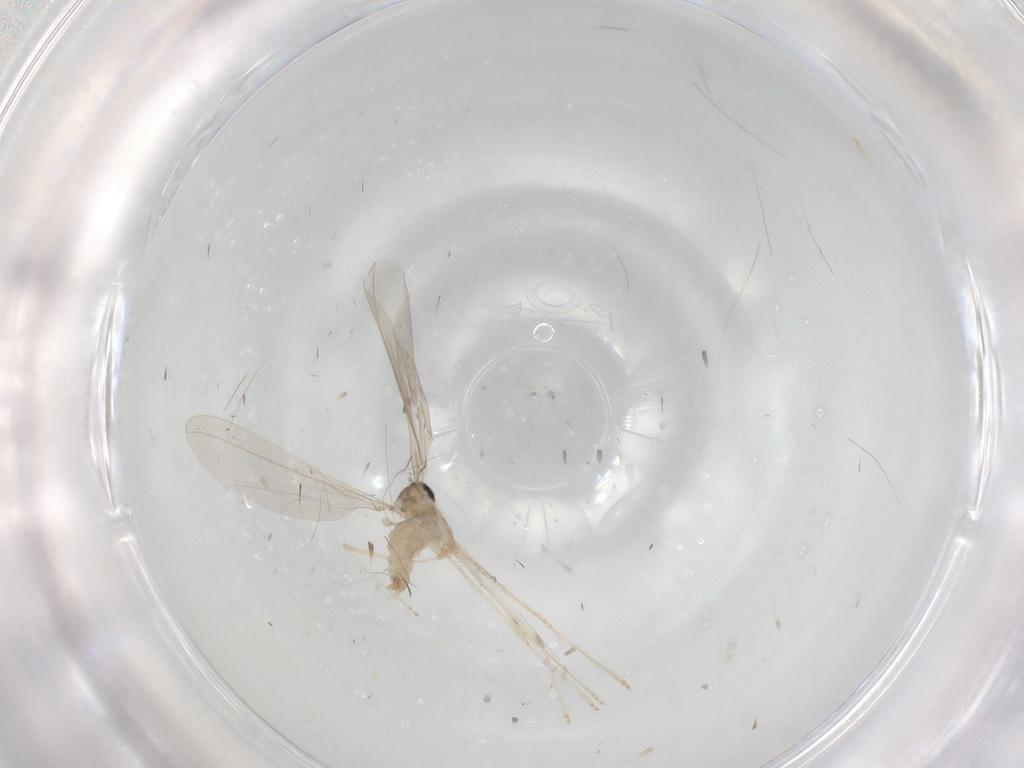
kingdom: Animalia
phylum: Arthropoda
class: Insecta
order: Diptera
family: Cecidomyiidae
